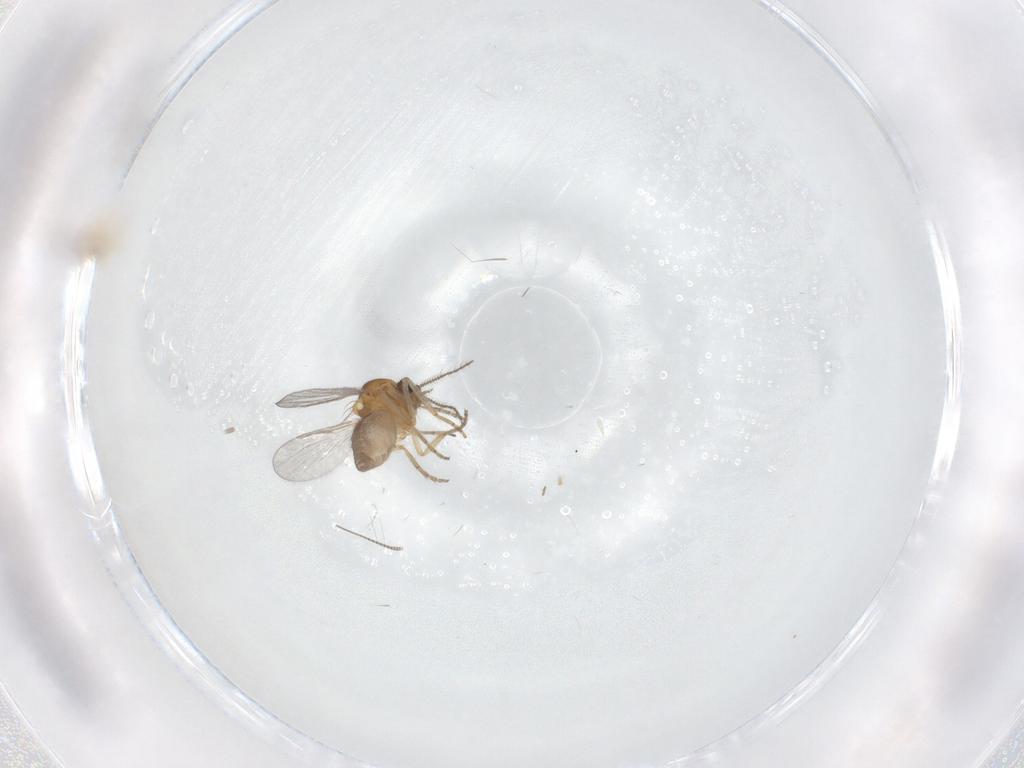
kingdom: Animalia
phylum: Arthropoda
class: Insecta
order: Diptera
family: Dolichopodidae
